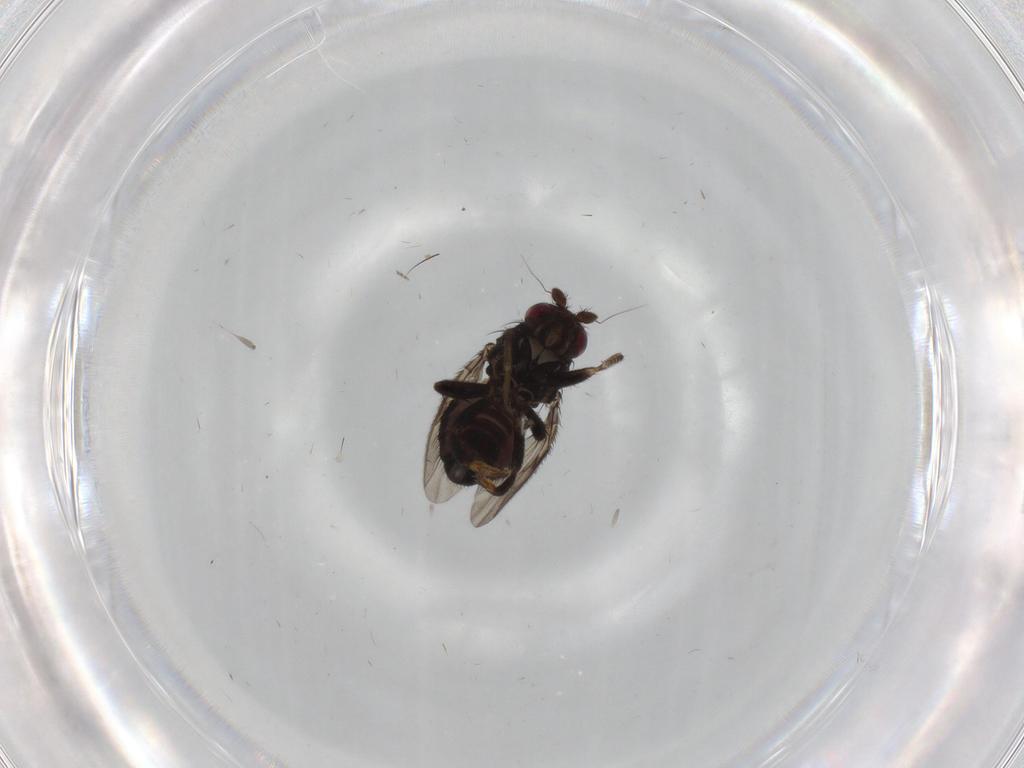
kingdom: Animalia
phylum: Arthropoda
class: Insecta
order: Diptera
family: Sphaeroceridae
